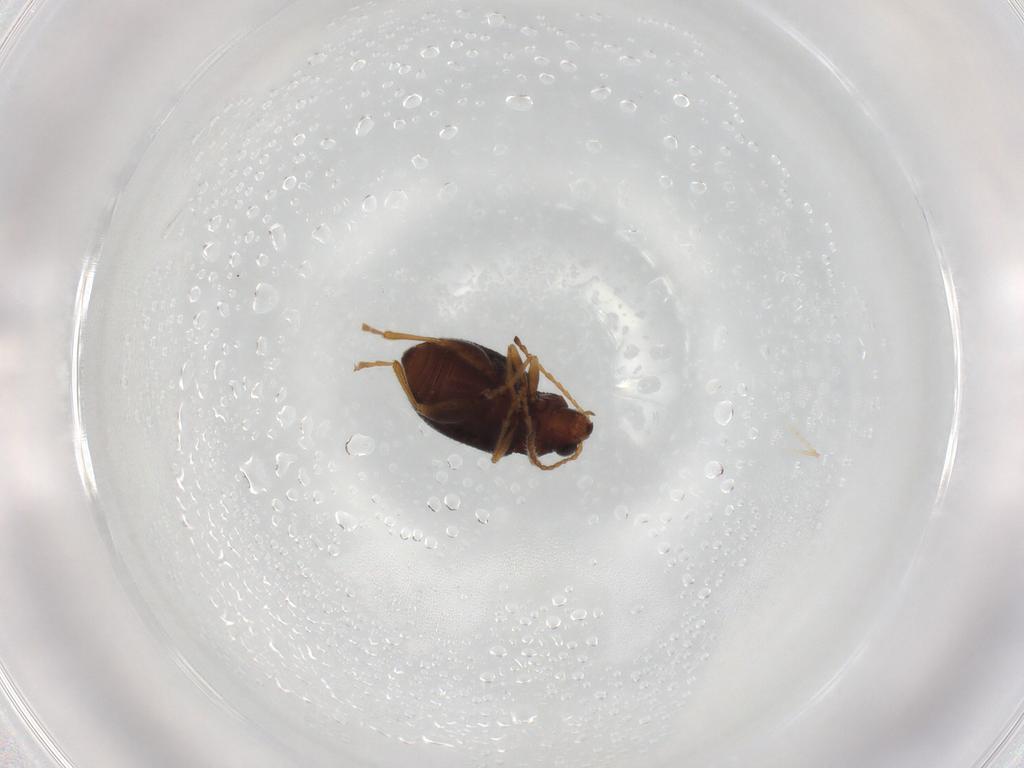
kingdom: Animalia
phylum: Arthropoda
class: Insecta
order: Coleoptera
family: Chrysomelidae
